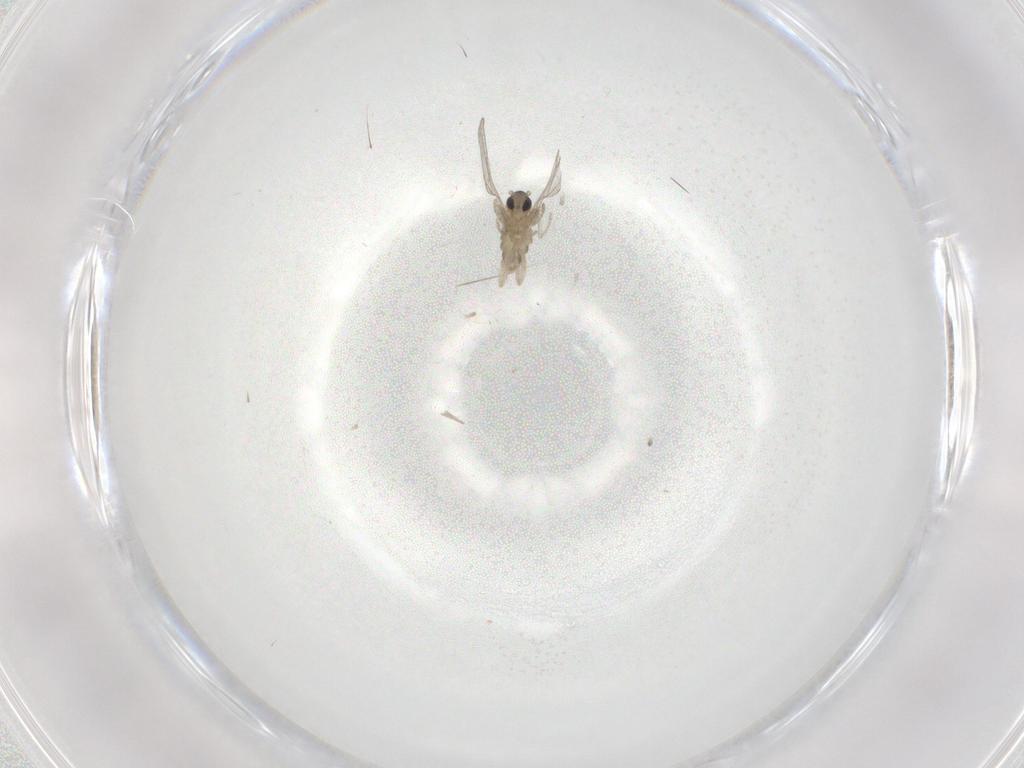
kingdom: Animalia
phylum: Arthropoda
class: Insecta
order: Diptera
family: Cecidomyiidae
